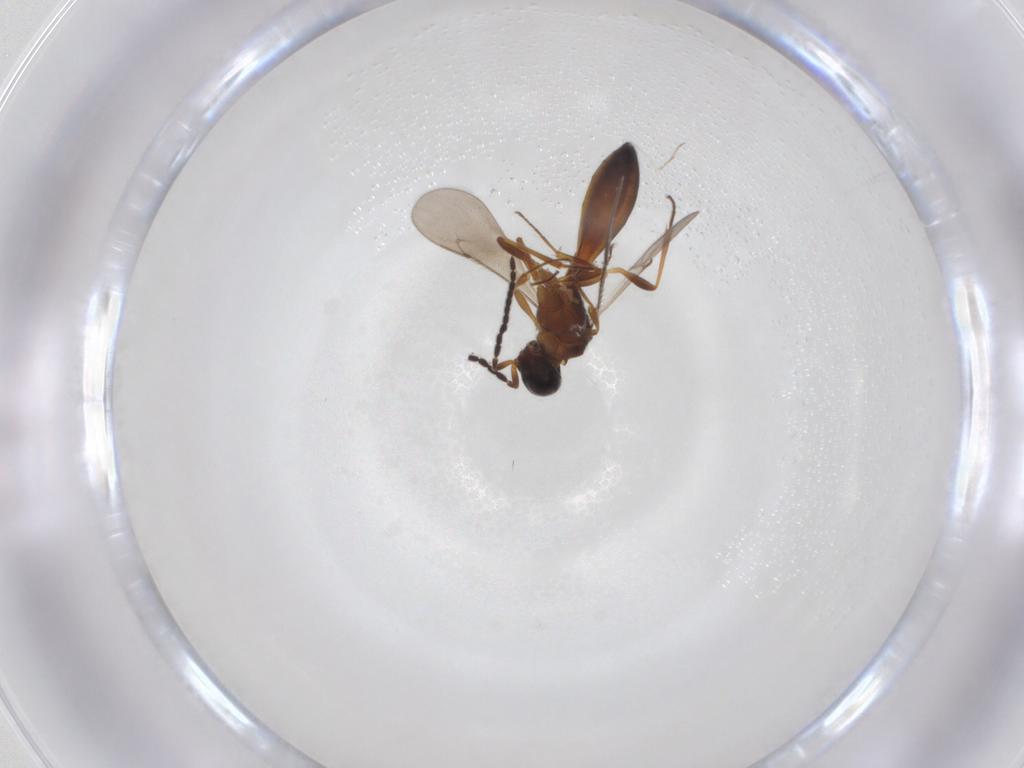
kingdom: Animalia
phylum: Arthropoda
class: Insecta
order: Hymenoptera
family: Scelionidae
